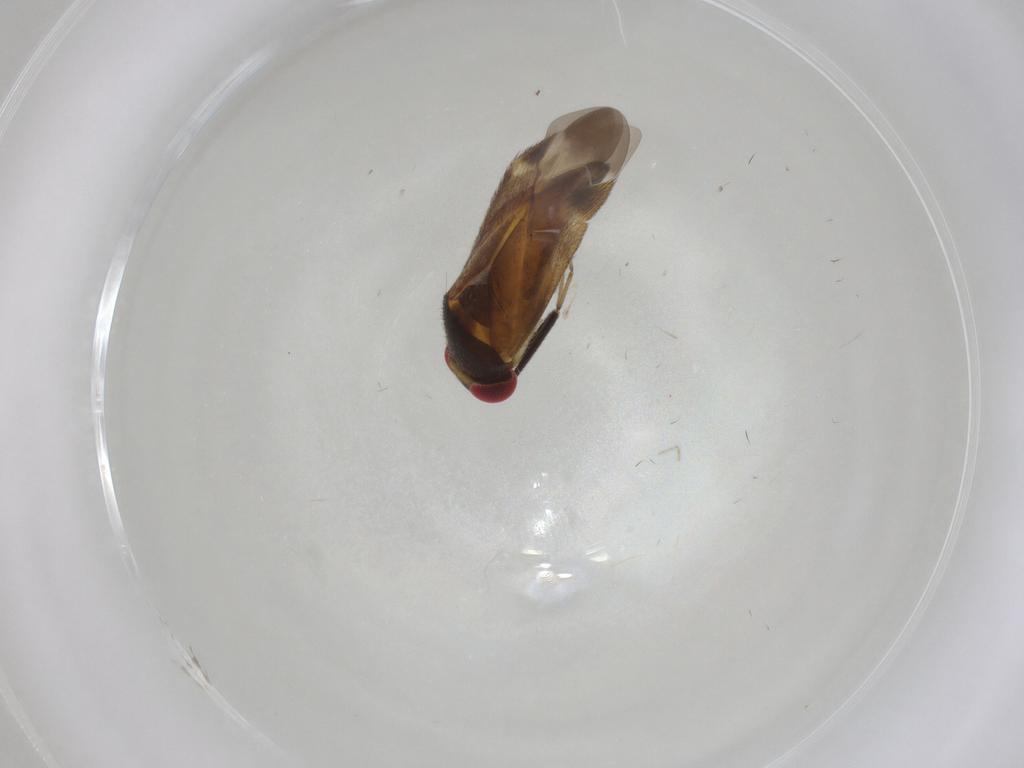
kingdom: Animalia
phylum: Arthropoda
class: Insecta
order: Hemiptera
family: Miridae
